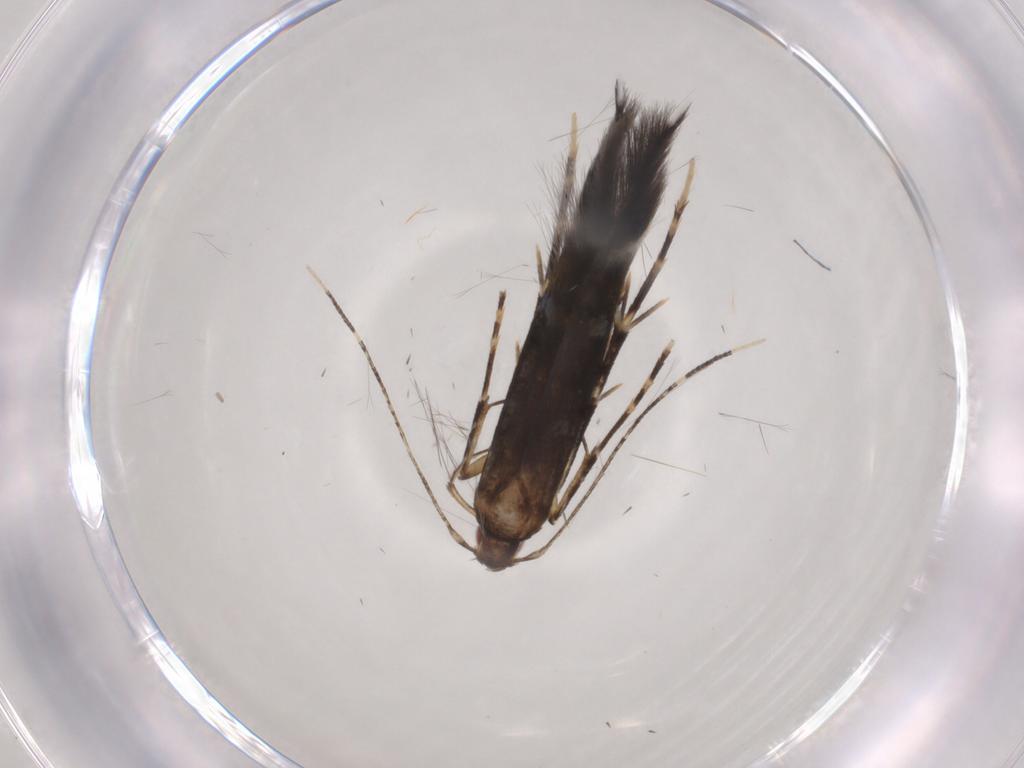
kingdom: Animalia
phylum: Arthropoda
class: Insecta
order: Lepidoptera
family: Cosmopterigidae
